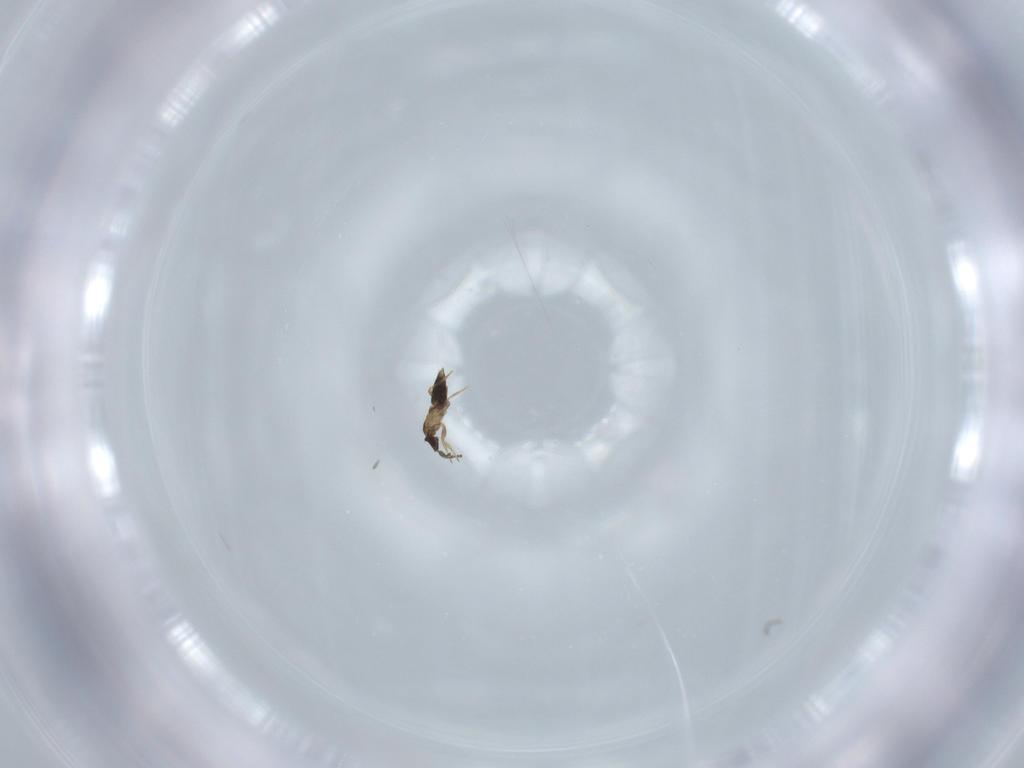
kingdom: Animalia
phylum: Arthropoda
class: Insecta
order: Hymenoptera
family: Mymaridae
